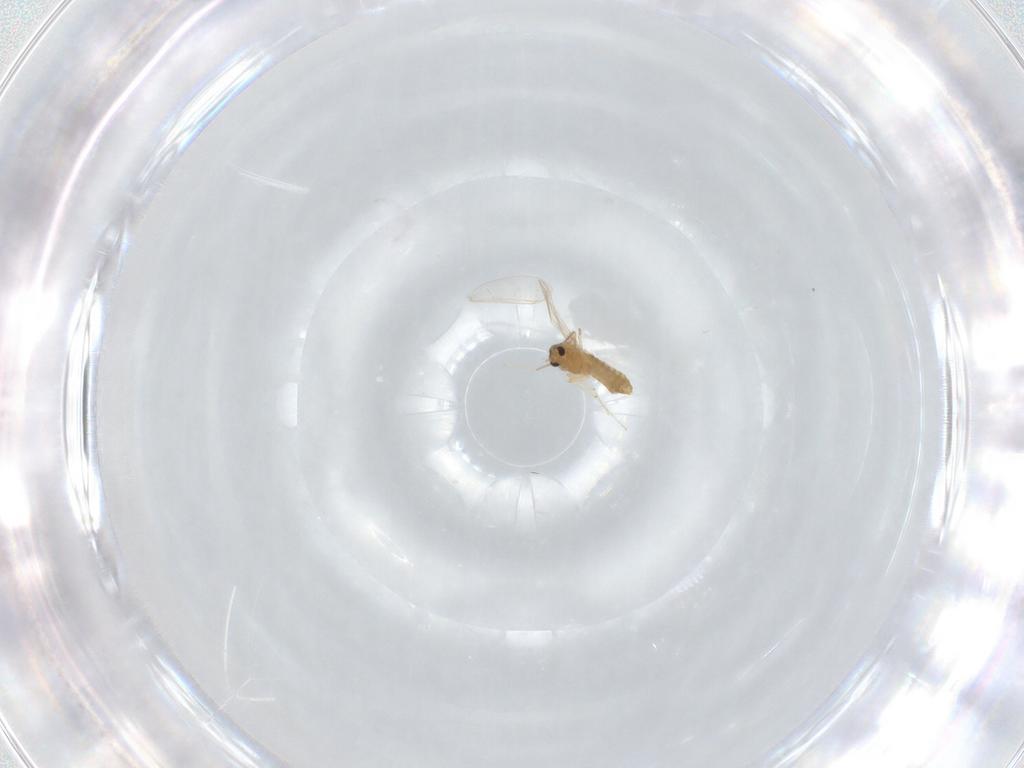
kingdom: Animalia
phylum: Arthropoda
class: Insecta
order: Diptera
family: Chironomidae
